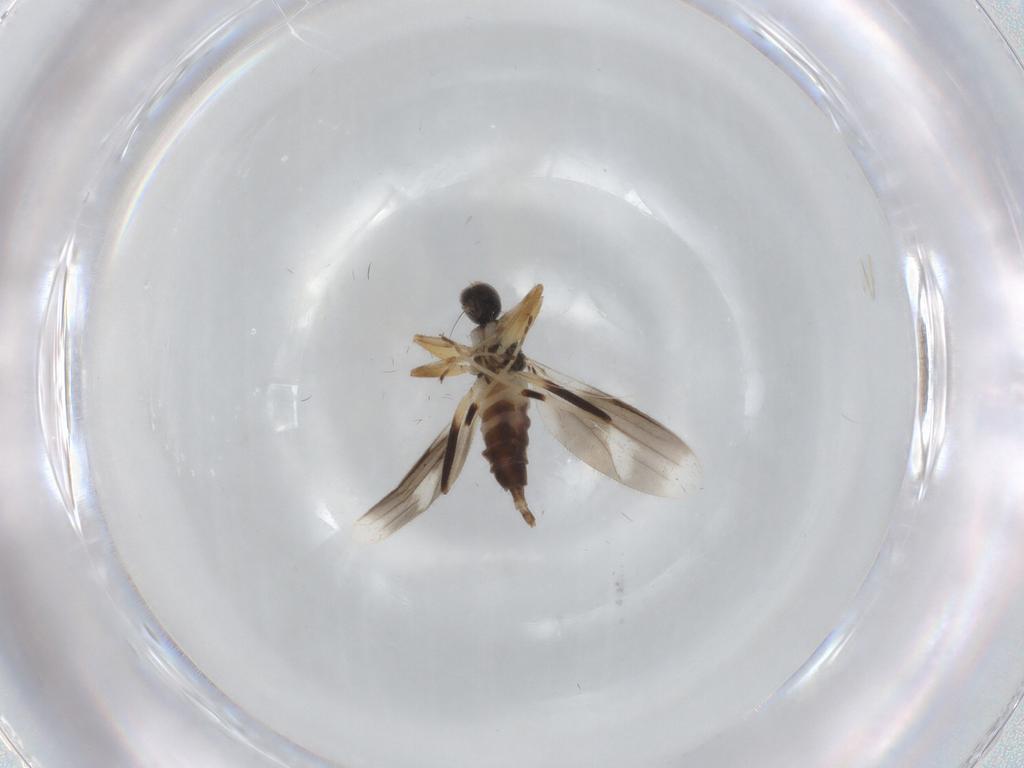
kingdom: Animalia
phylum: Arthropoda
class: Insecta
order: Diptera
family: Hybotidae
